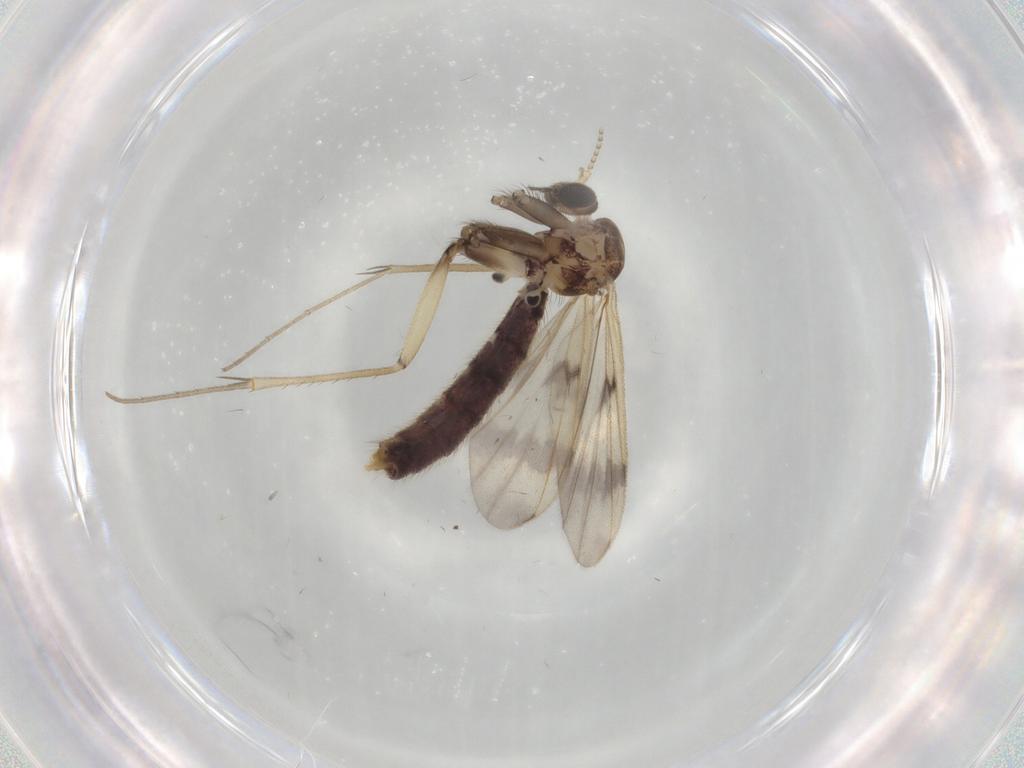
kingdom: Animalia
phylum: Arthropoda
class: Insecta
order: Diptera
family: Mycetophilidae
